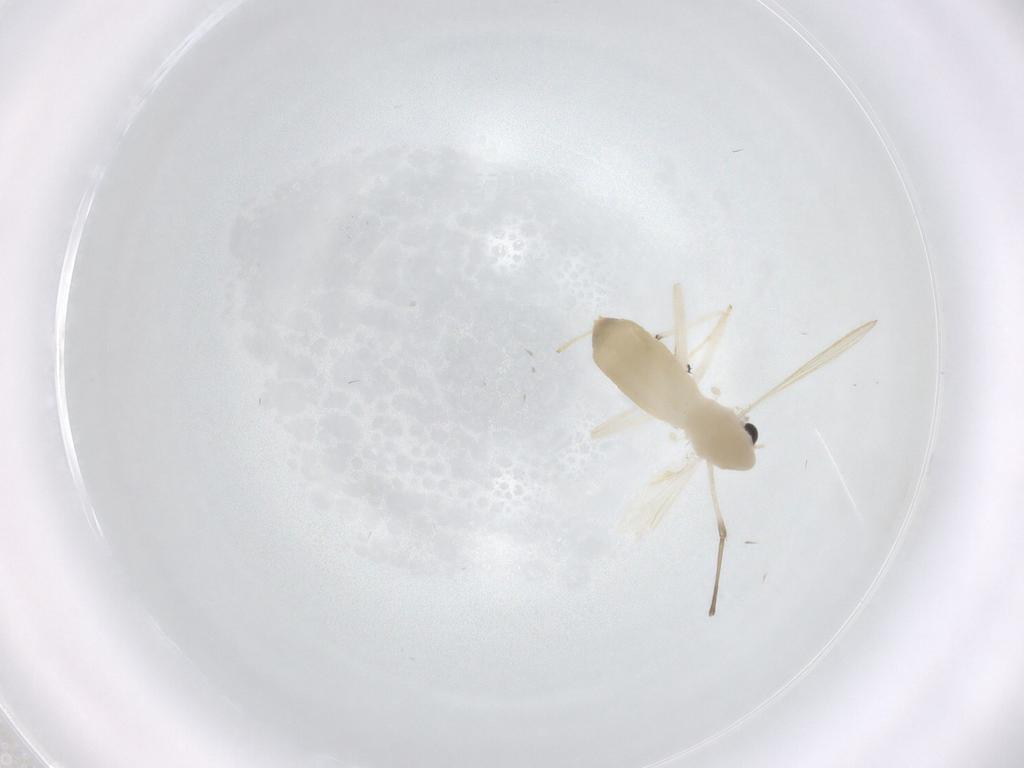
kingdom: Animalia
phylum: Arthropoda
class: Insecta
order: Diptera
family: Chironomidae
